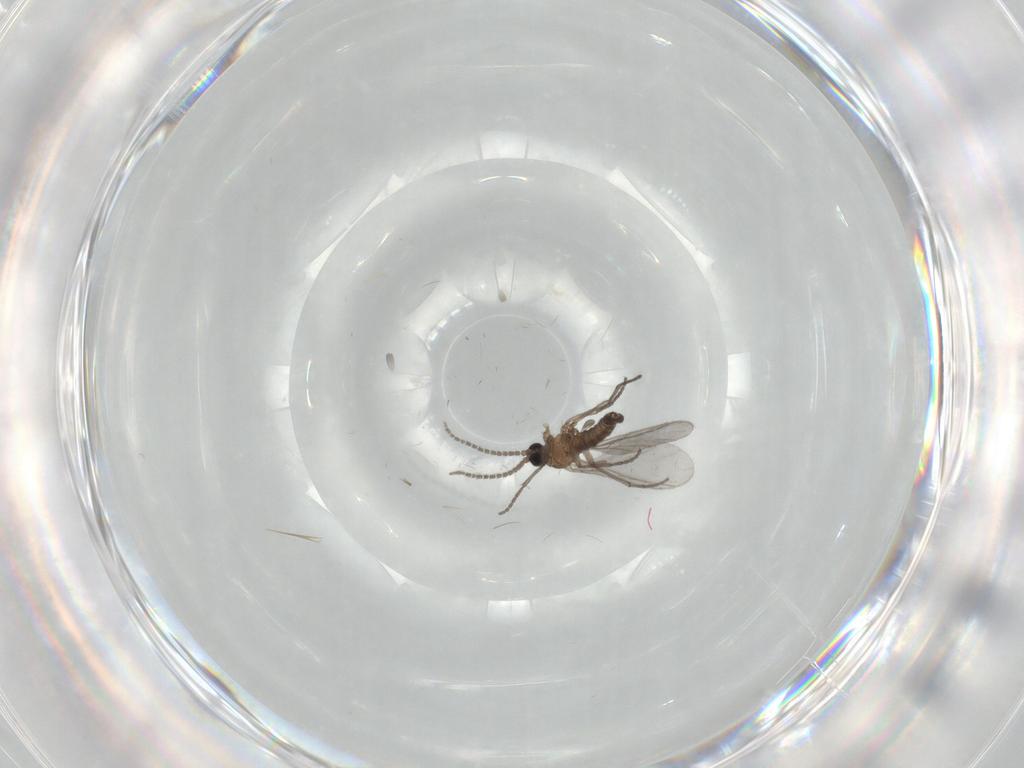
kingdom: Animalia
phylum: Arthropoda
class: Insecta
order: Diptera
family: Sciaridae
